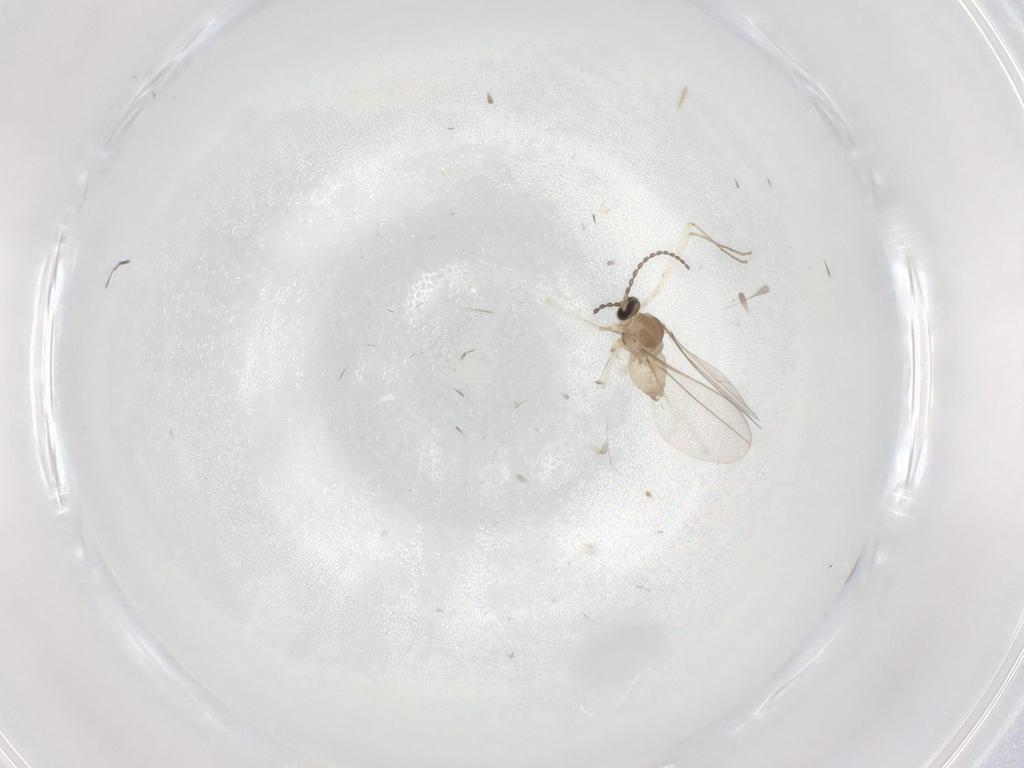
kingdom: Animalia
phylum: Arthropoda
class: Insecta
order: Diptera
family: Cecidomyiidae
